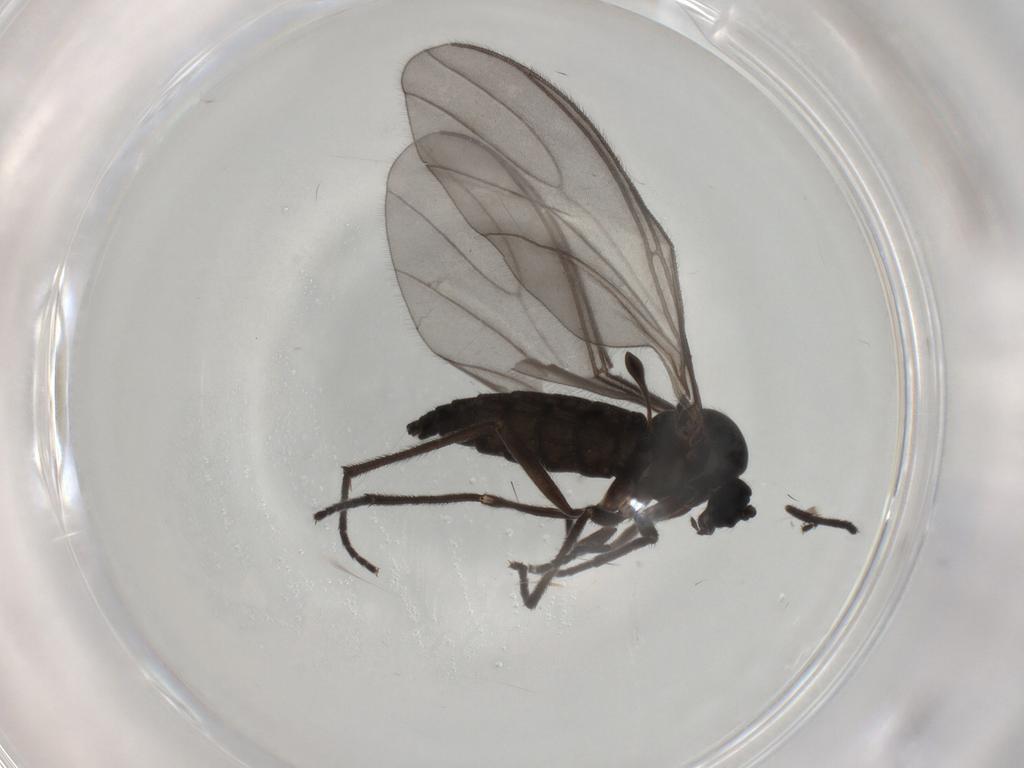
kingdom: Animalia
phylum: Arthropoda
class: Insecta
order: Diptera
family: Sciaridae
